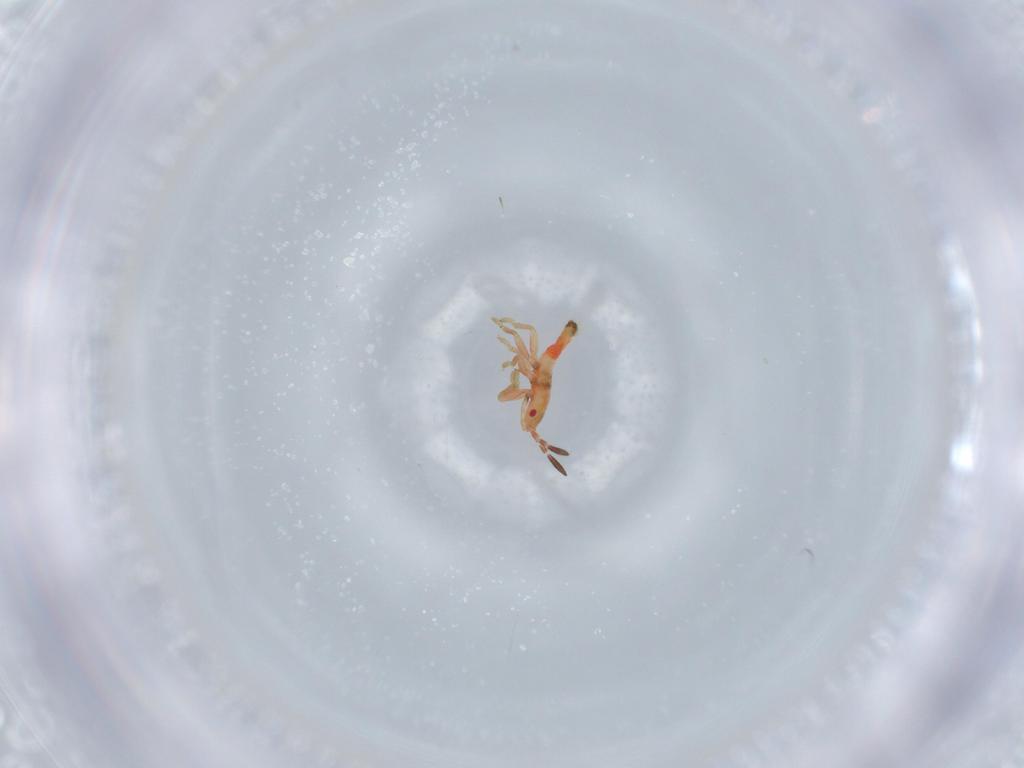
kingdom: Animalia
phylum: Arthropoda
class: Insecta
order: Hemiptera
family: Blissidae
